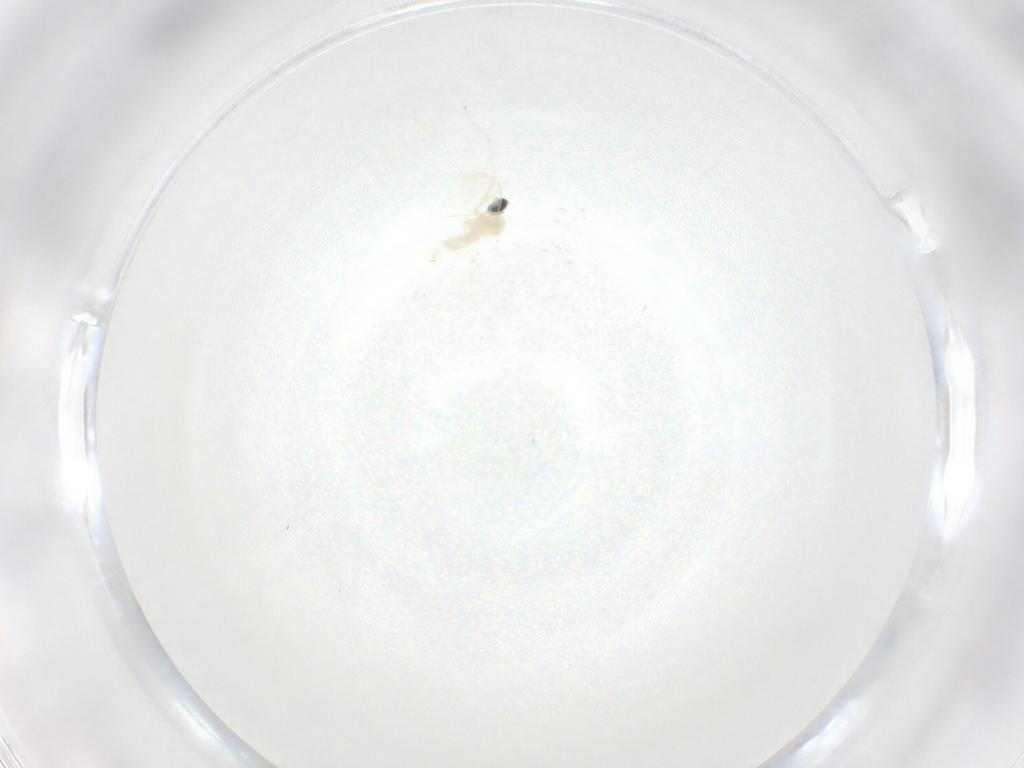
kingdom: Animalia
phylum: Arthropoda
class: Insecta
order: Diptera
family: Cecidomyiidae
